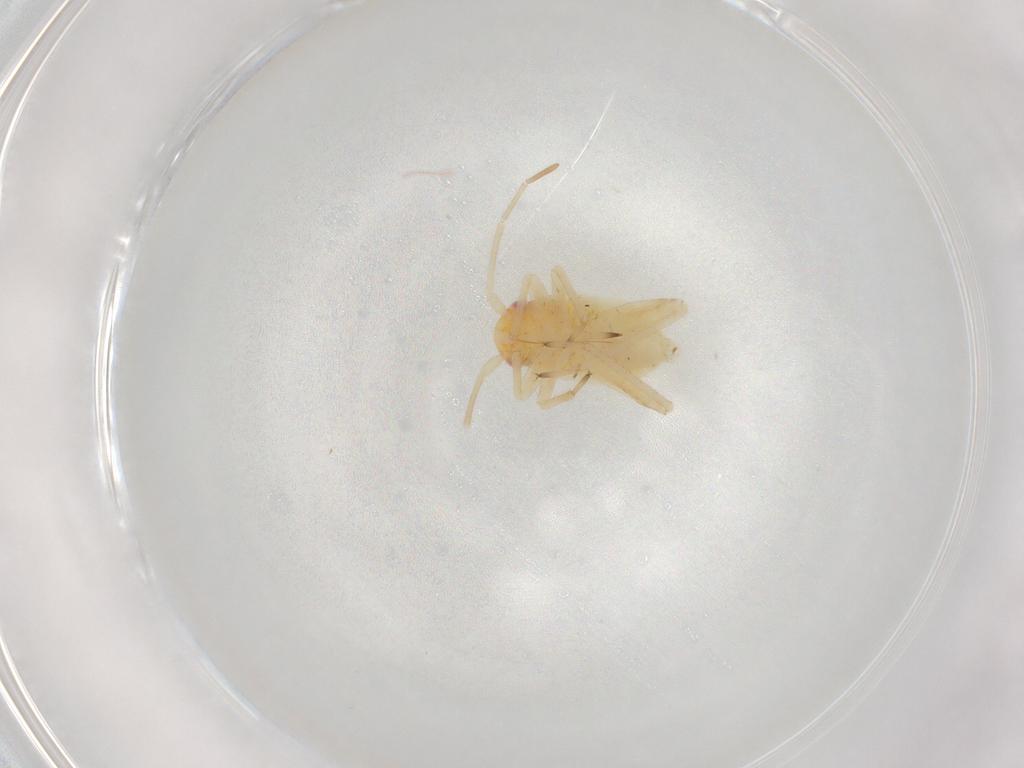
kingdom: Animalia
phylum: Arthropoda
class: Insecta
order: Hemiptera
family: Miridae
